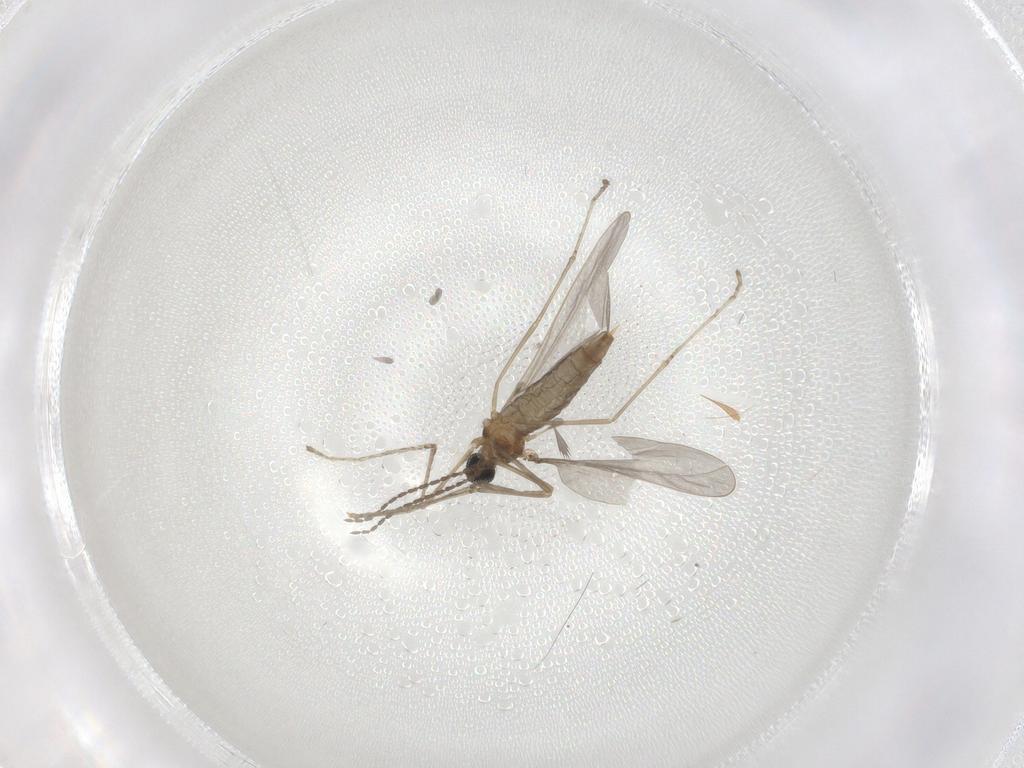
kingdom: Animalia
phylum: Arthropoda
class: Insecta
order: Diptera
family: Cecidomyiidae
